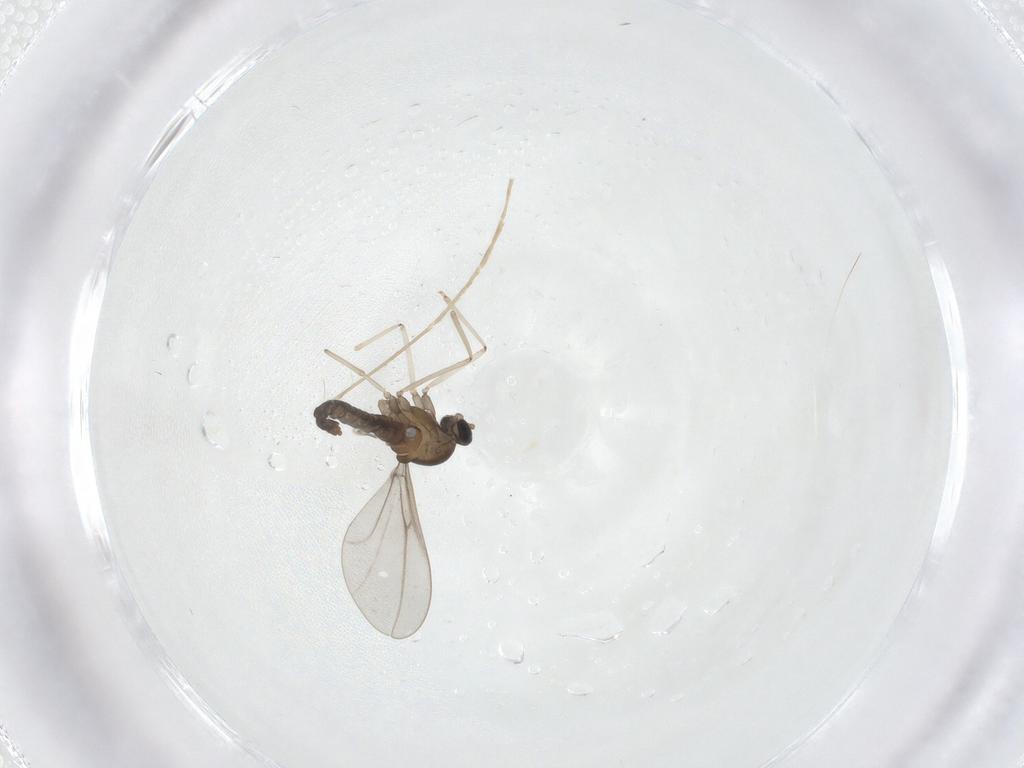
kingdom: Animalia
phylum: Arthropoda
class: Insecta
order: Diptera
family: Chironomidae
